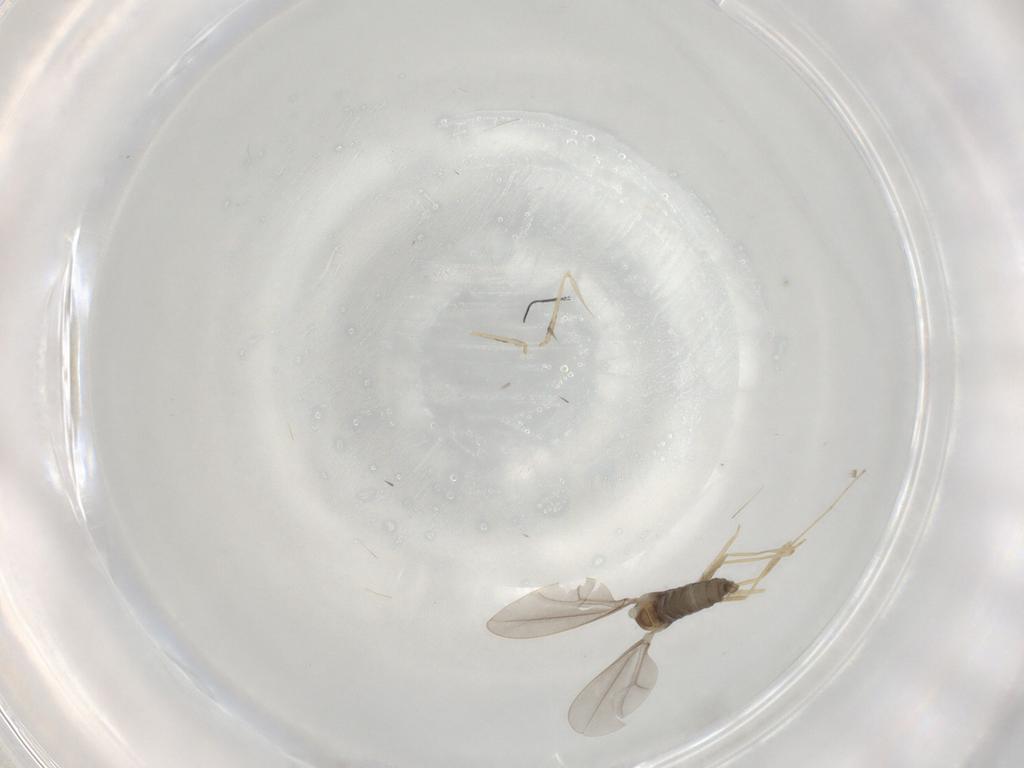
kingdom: Animalia
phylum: Arthropoda
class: Insecta
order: Diptera
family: Cecidomyiidae
